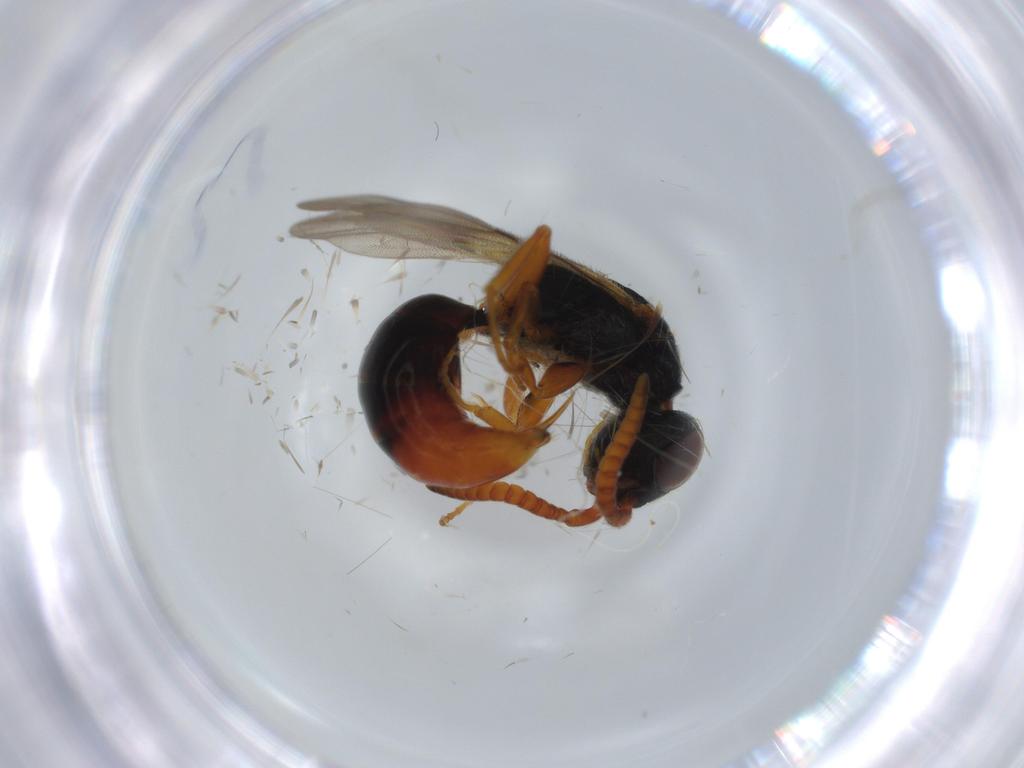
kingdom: Animalia
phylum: Arthropoda
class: Insecta
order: Hymenoptera
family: Bethylidae
